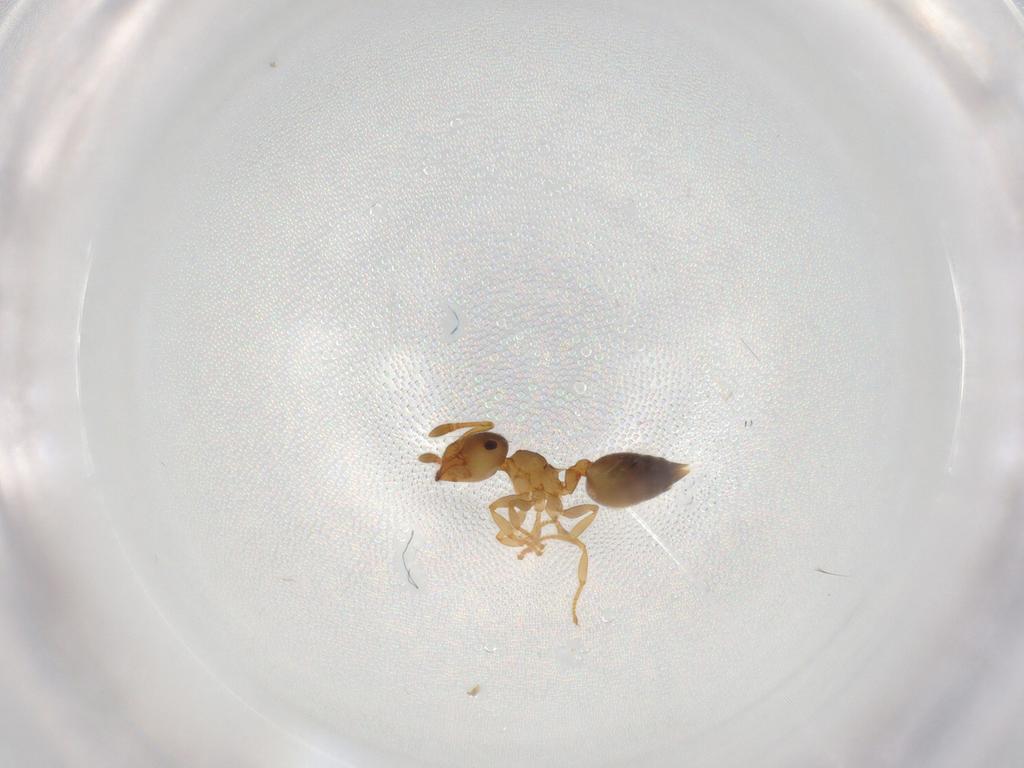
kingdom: Animalia
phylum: Arthropoda
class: Insecta
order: Hymenoptera
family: Formicidae
